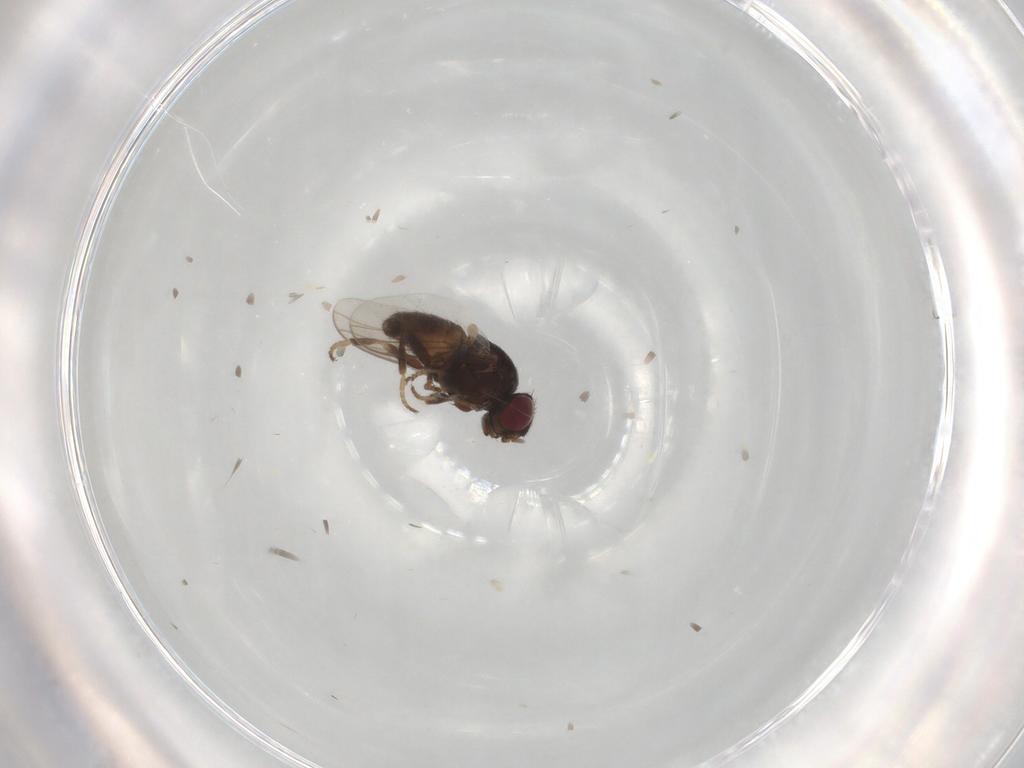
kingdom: Animalia
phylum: Arthropoda
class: Insecta
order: Diptera
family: Chloropidae
